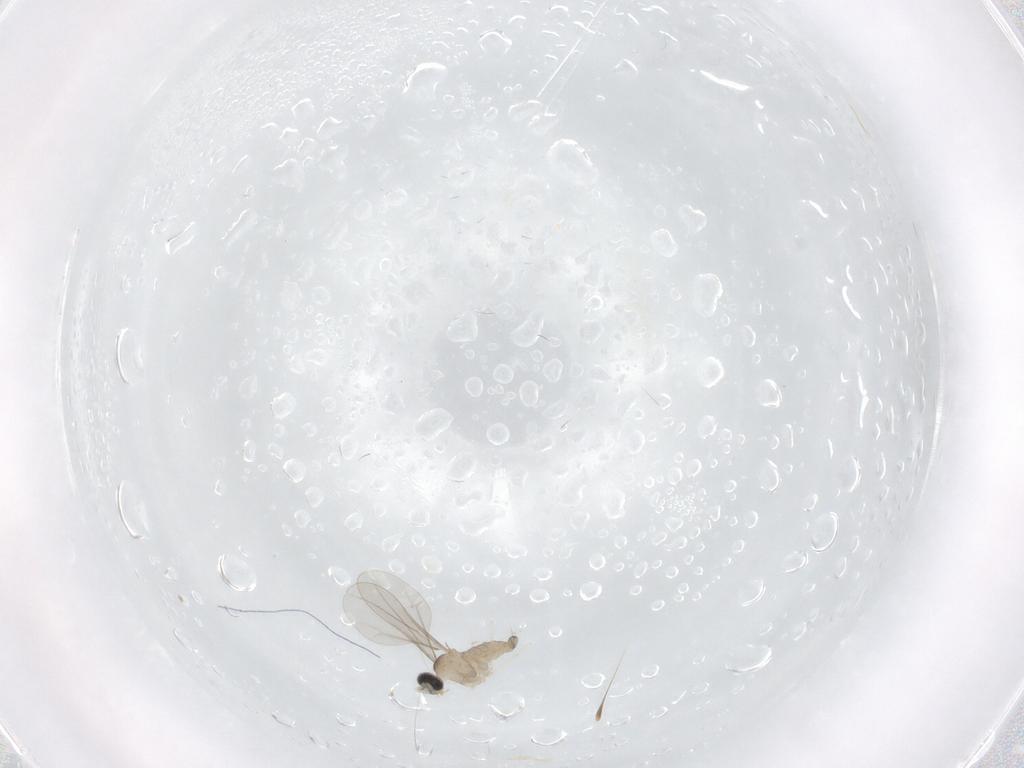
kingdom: Animalia
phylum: Arthropoda
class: Insecta
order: Diptera
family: Cecidomyiidae
